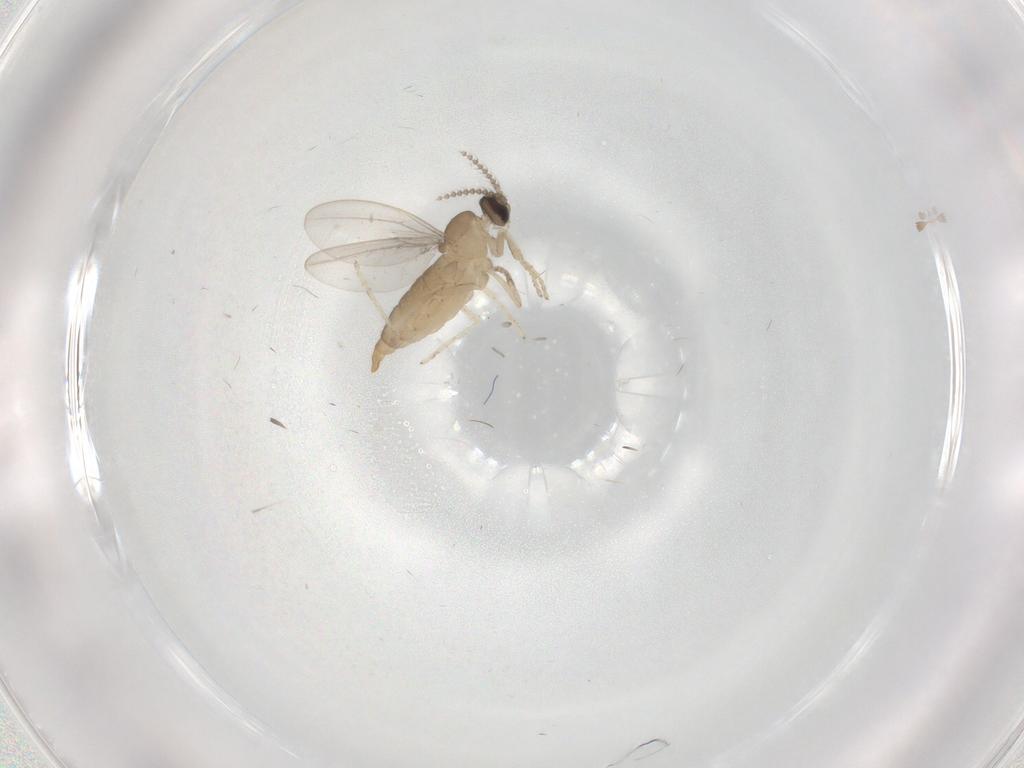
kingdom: Animalia
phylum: Arthropoda
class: Insecta
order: Diptera
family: Cecidomyiidae
